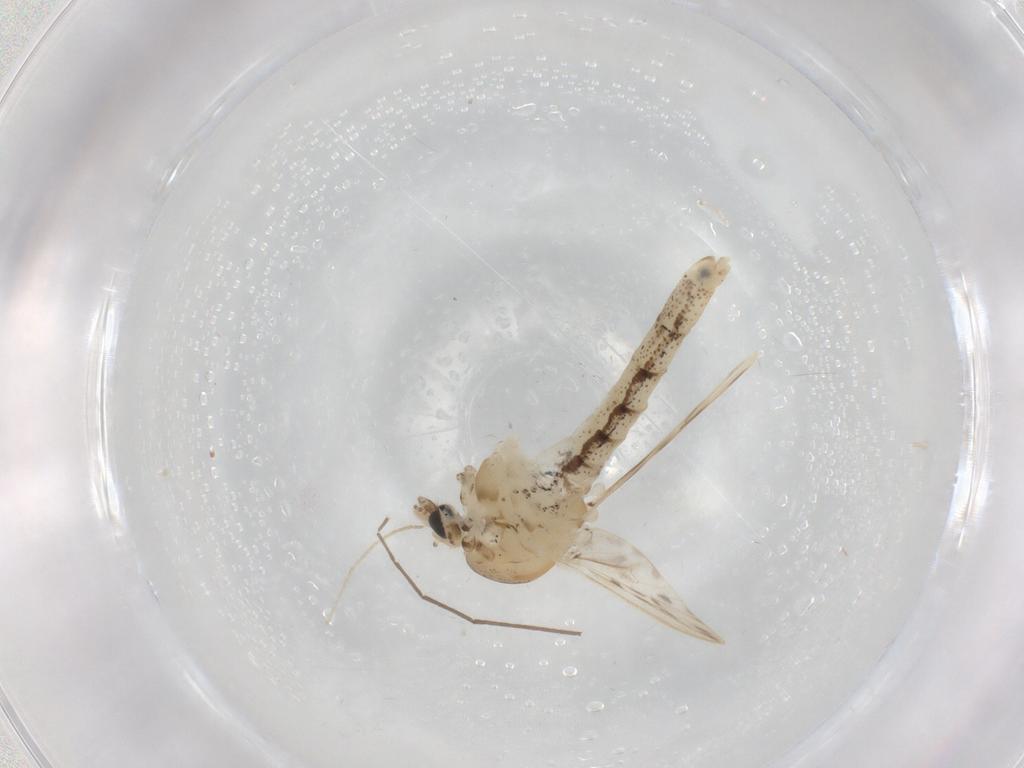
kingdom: Animalia
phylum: Arthropoda
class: Insecta
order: Diptera
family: Chaoboridae
